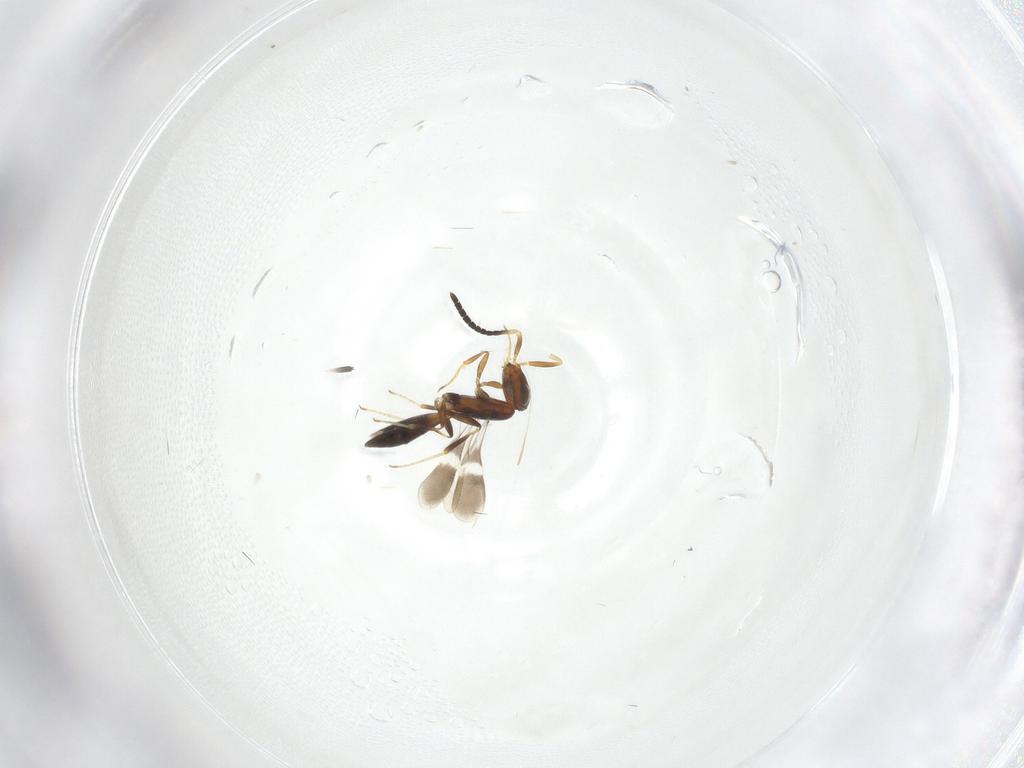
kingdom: Animalia
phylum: Arthropoda
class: Insecta
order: Hymenoptera
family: Scelionidae
